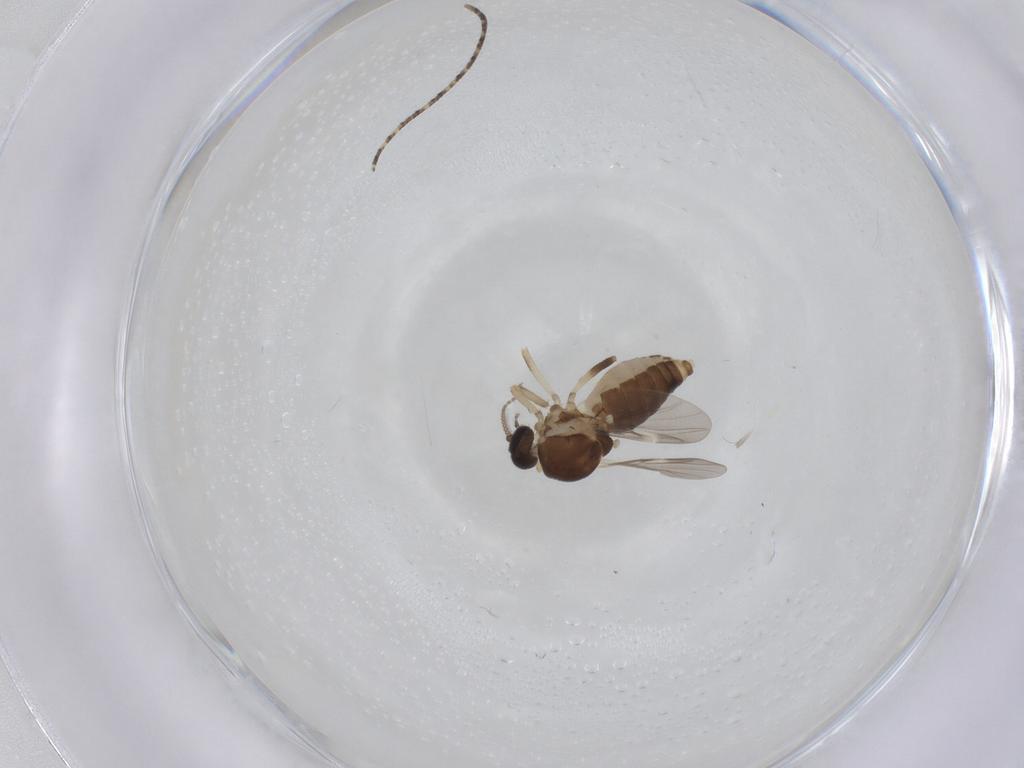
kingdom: Animalia
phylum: Arthropoda
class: Insecta
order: Diptera
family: Ceratopogonidae
